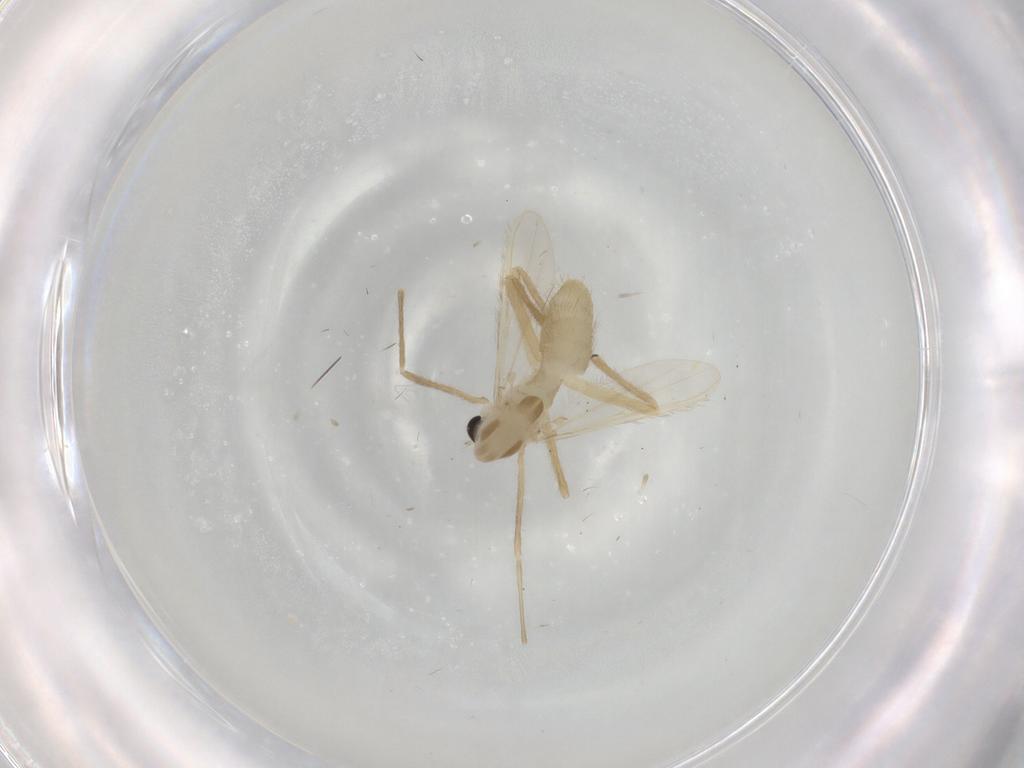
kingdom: Animalia
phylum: Arthropoda
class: Insecta
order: Diptera
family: Chironomidae
